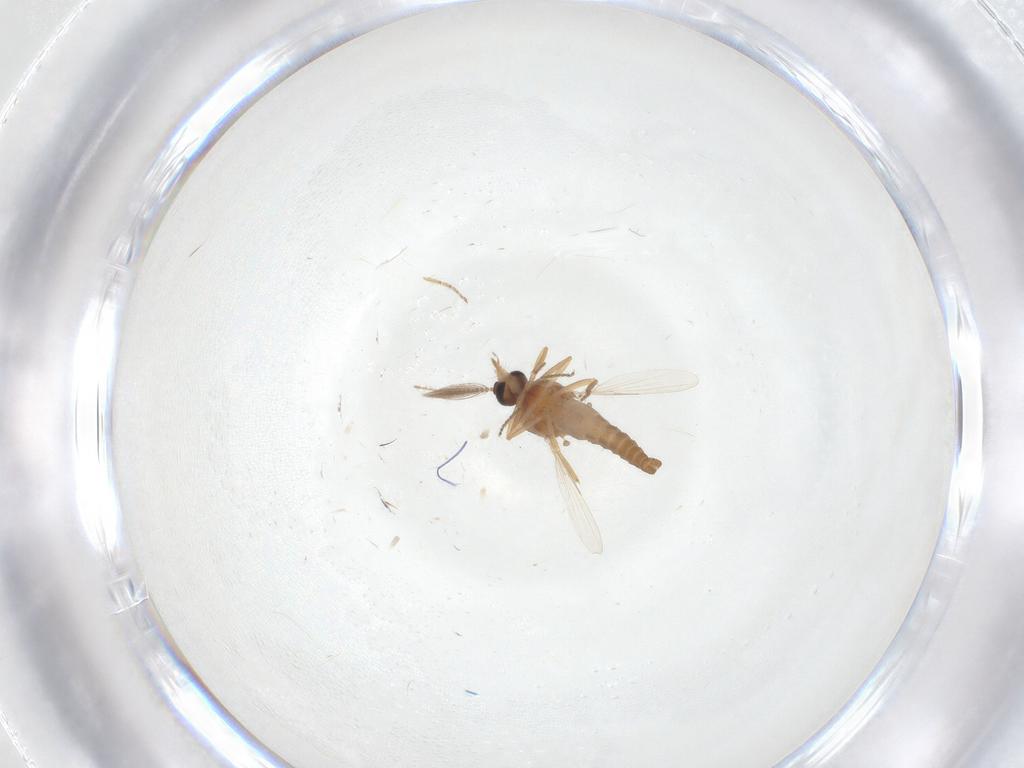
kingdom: Animalia
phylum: Arthropoda
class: Insecta
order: Diptera
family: Ceratopogonidae
